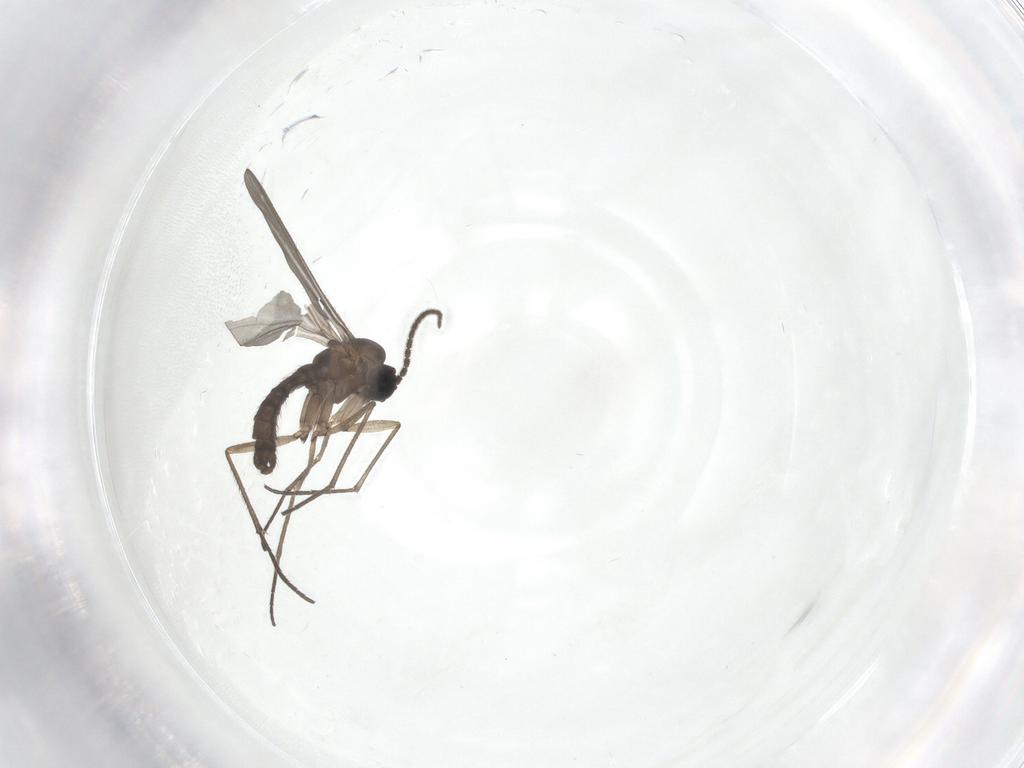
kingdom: Animalia
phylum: Arthropoda
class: Insecta
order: Diptera
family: Sciaridae
